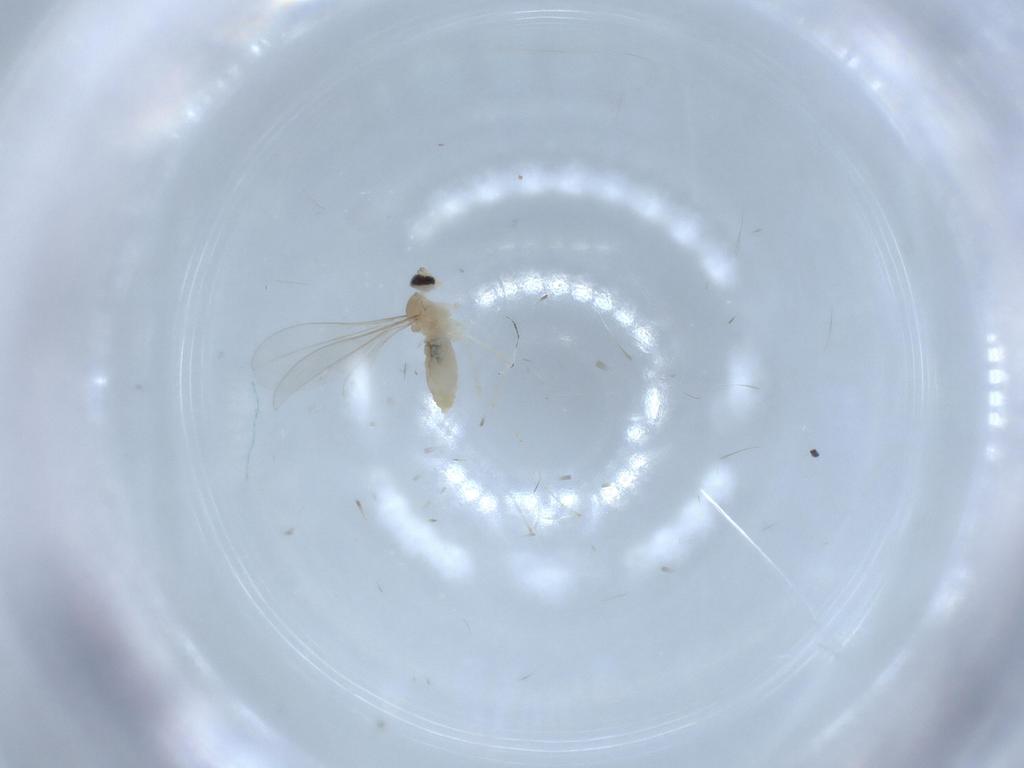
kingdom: Animalia
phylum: Arthropoda
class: Insecta
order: Diptera
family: Cecidomyiidae
